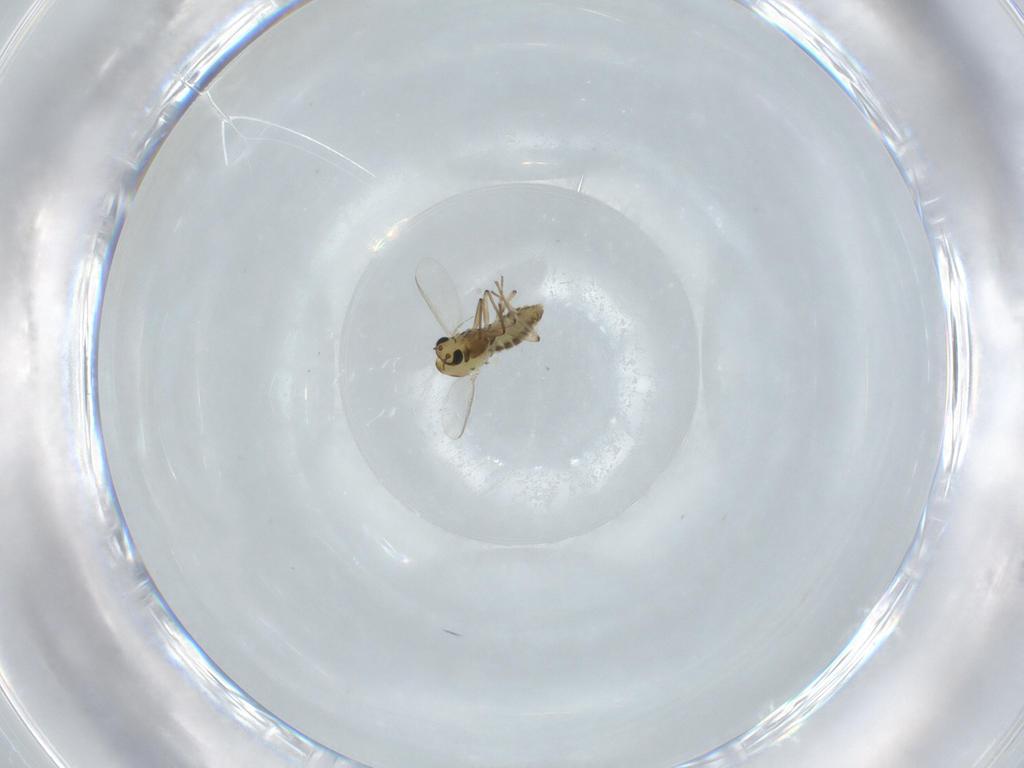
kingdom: Animalia
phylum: Arthropoda
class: Insecta
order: Diptera
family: Chironomidae
